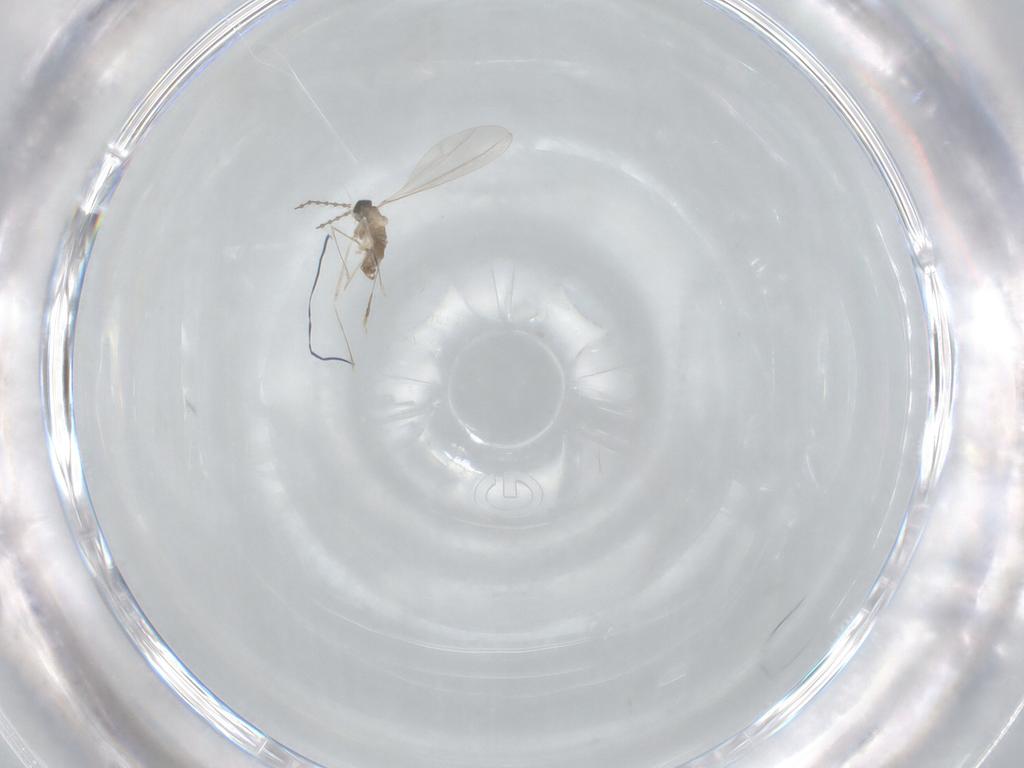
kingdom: Animalia
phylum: Arthropoda
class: Insecta
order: Diptera
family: Cecidomyiidae
